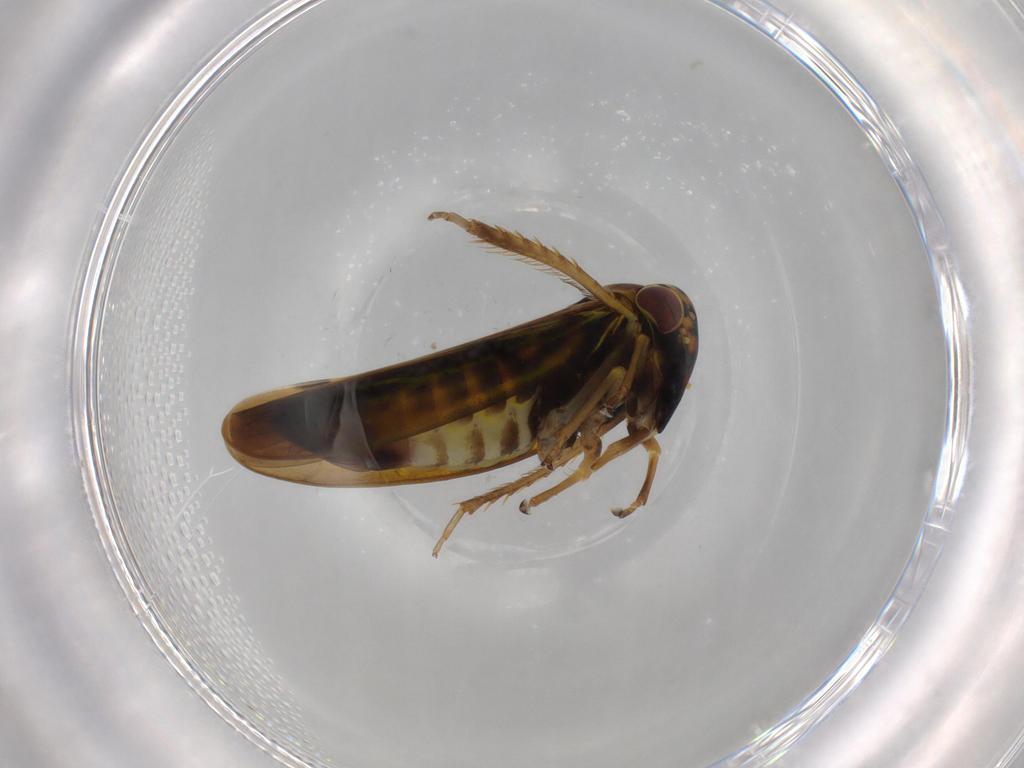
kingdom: Animalia
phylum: Arthropoda
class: Insecta
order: Hemiptera
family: Cicadellidae
